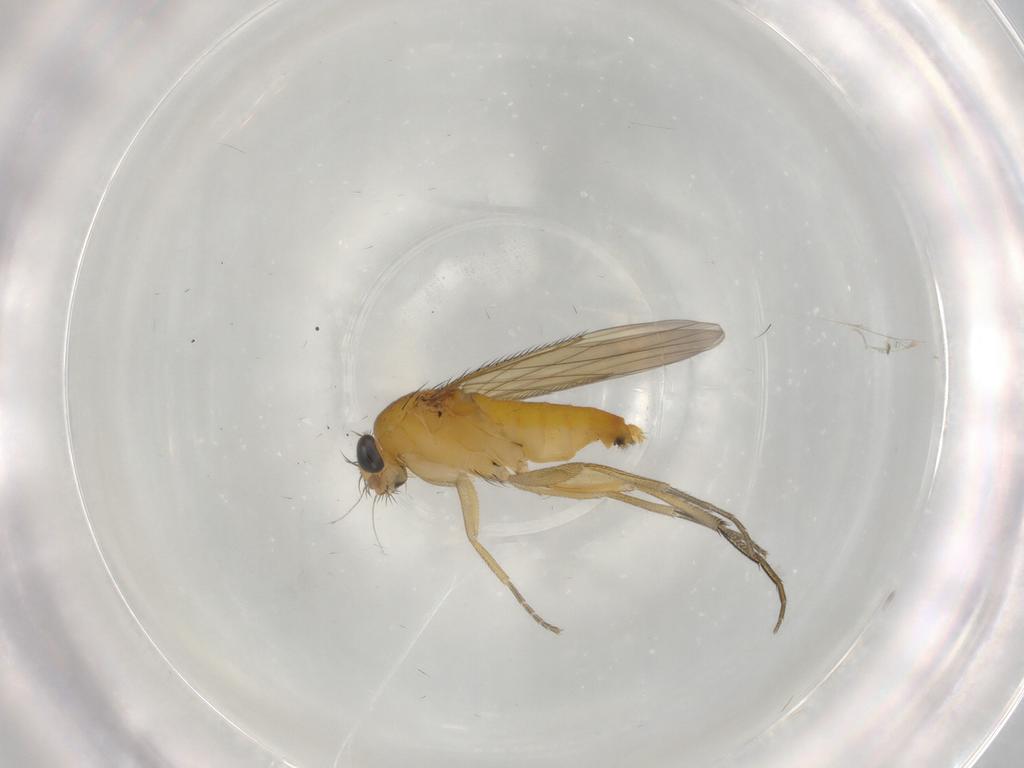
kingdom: Animalia
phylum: Arthropoda
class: Insecta
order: Diptera
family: Phoridae
